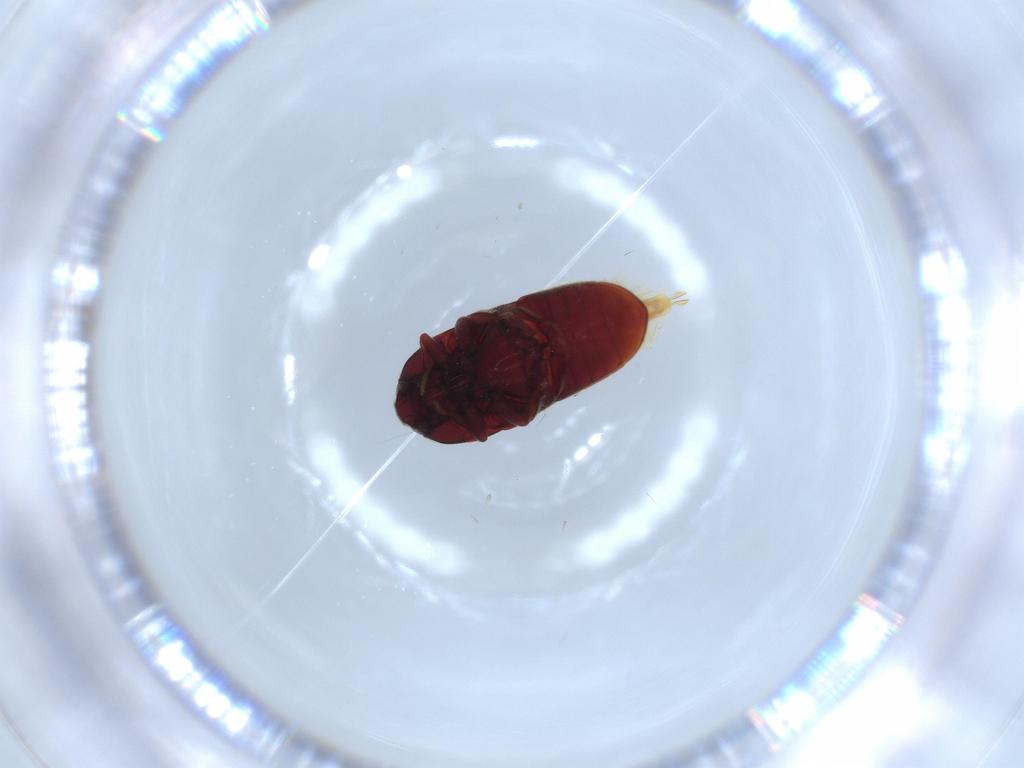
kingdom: Animalia
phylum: Arthropoda
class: Insecta
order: Coleoptera
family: Throscidae
